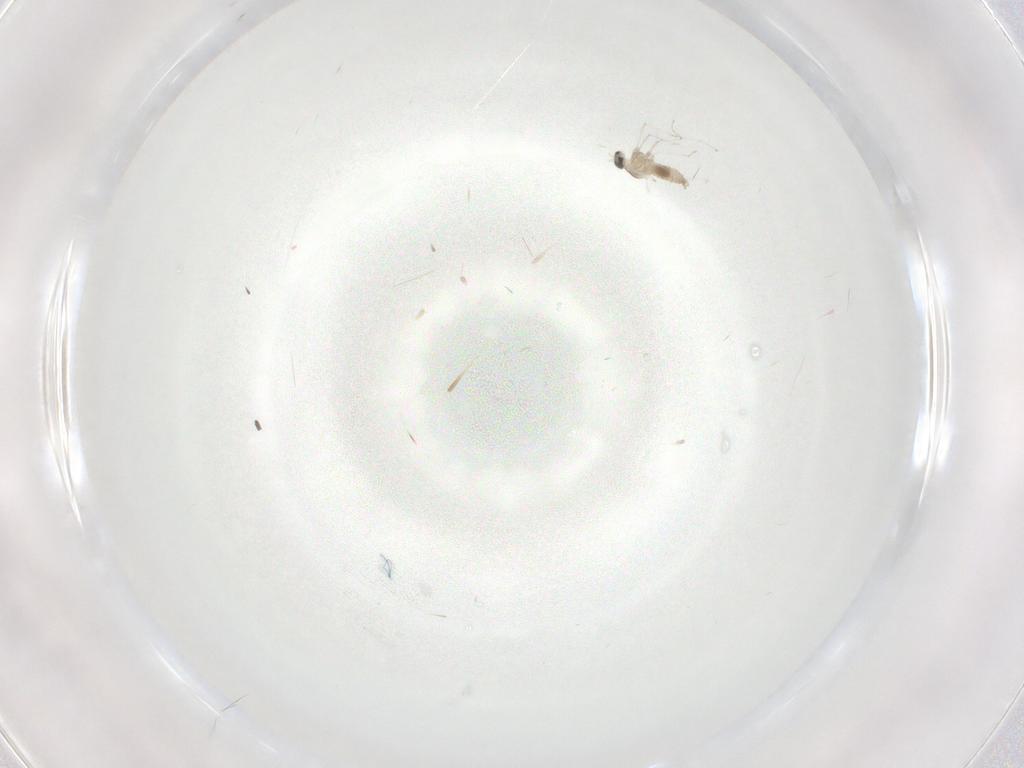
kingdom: Animalia
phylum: Arthropoda
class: Insecta
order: Diptera
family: Cecidomyiidae
